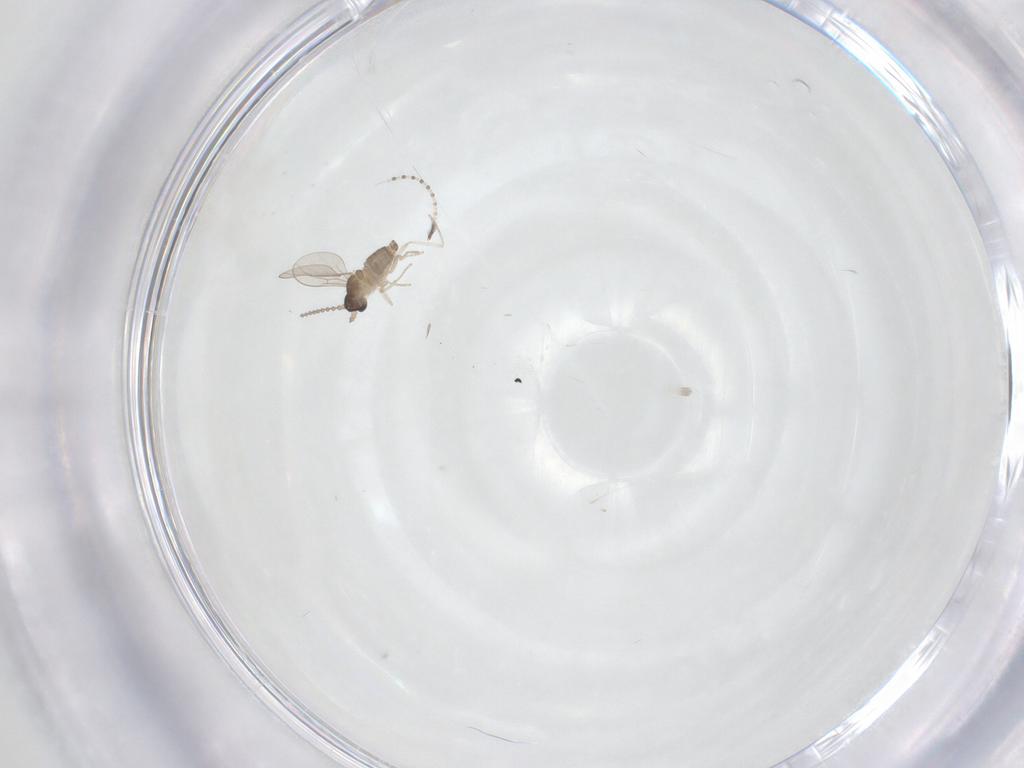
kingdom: Animalia
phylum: Arthropoda
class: Insecta
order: Diptera
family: Cecidomyiidae
